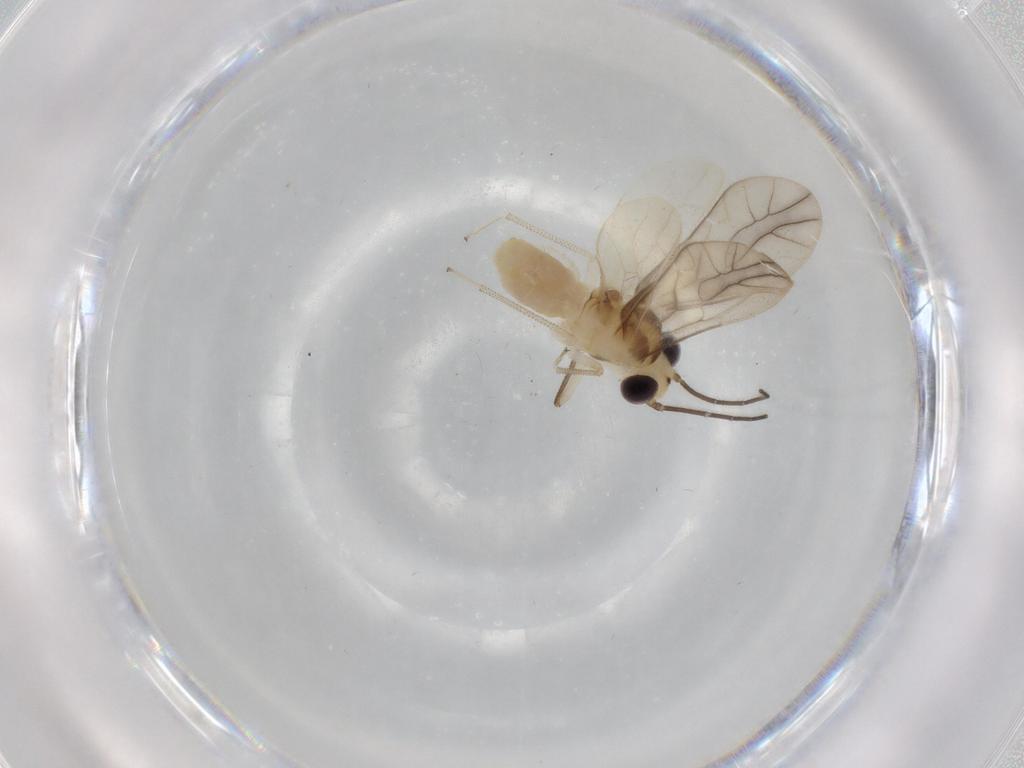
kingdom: Animalia
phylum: Arthropoda
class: Insecta
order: Psocodea
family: Caeciliusidae
